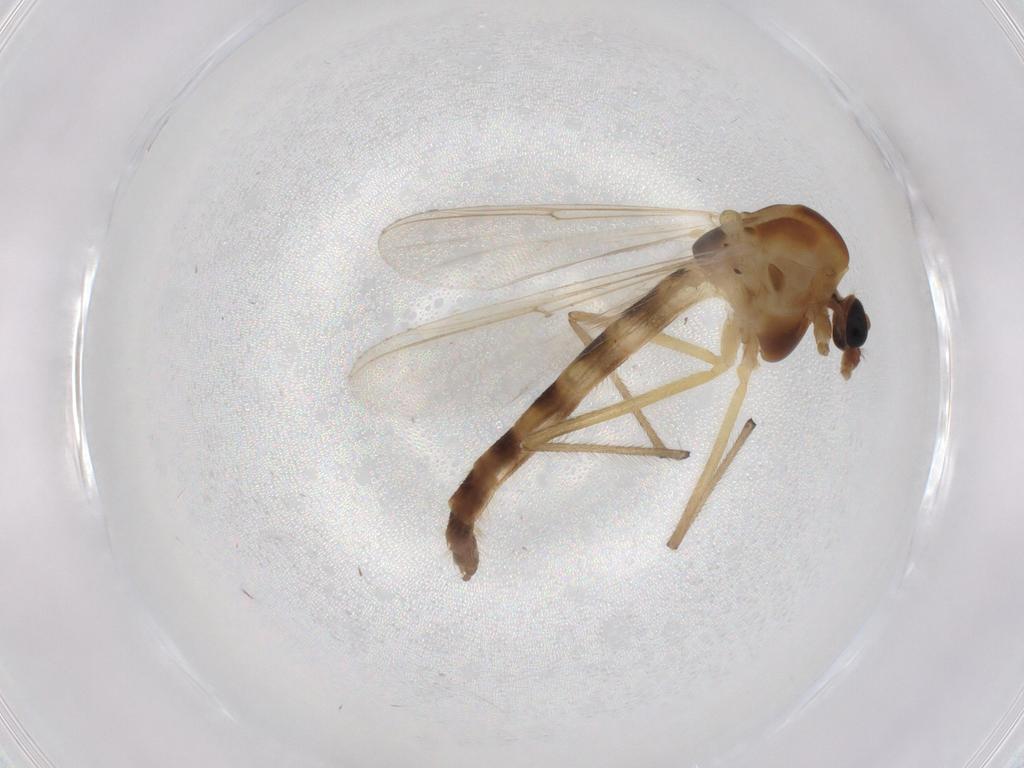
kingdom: Animalia
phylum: Arthropoda
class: Insecta
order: Diptera
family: Chironomidae
